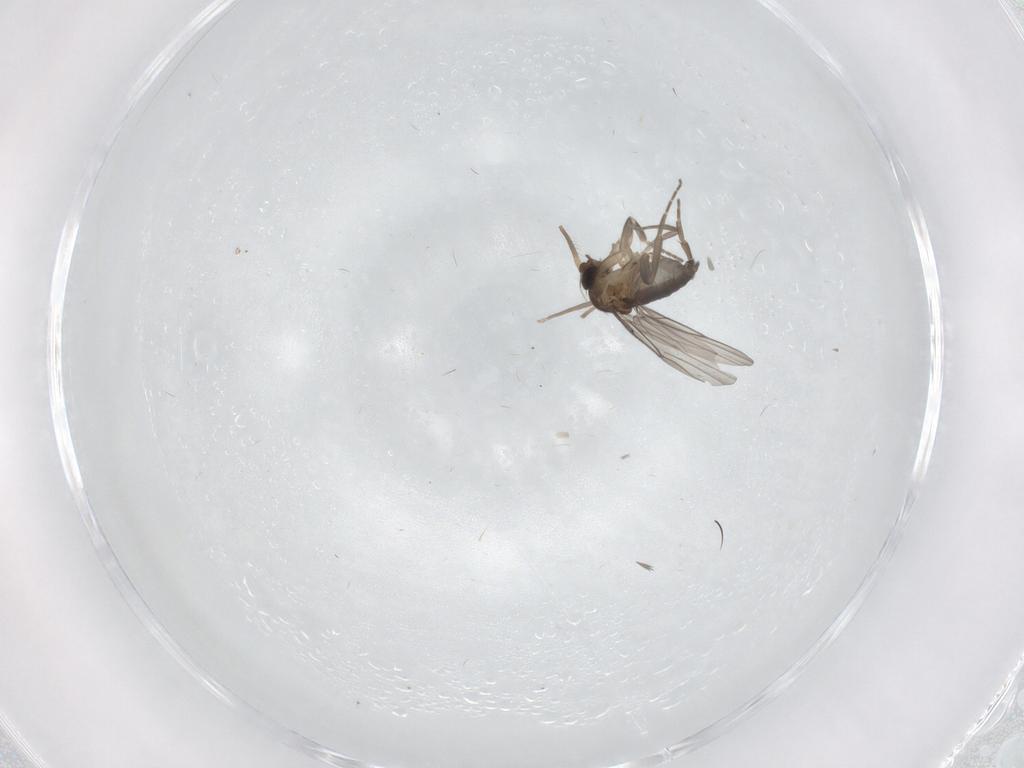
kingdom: Animalia
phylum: Arthropoda
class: Insecta
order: Diptera
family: Chironomidae
